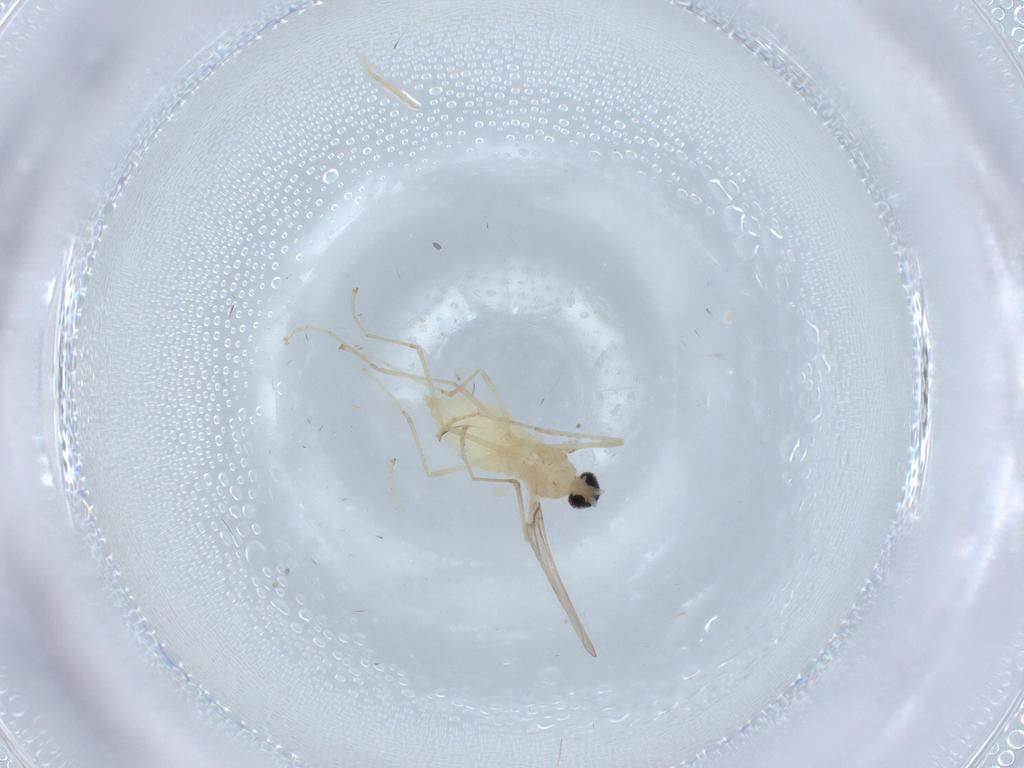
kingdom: Animalia
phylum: Arthropoda
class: Insecta
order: Diptera
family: Cecidomyiidae
